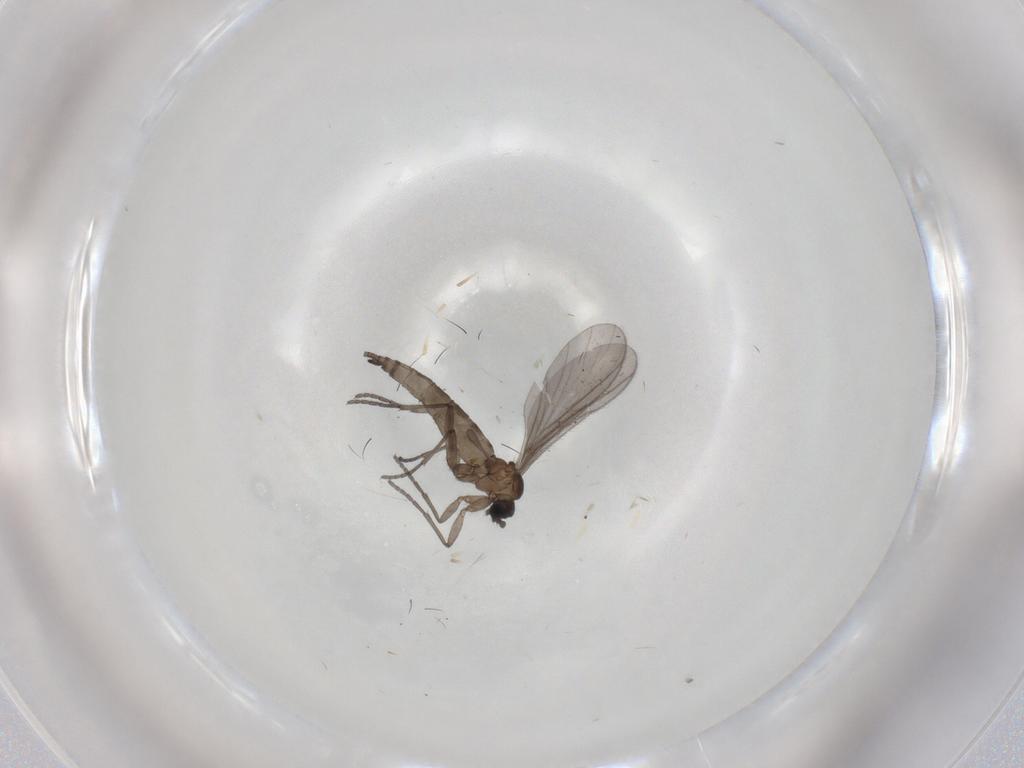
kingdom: Animalia
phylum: Arthropoda
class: Insecta
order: Diptera
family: Sciaridae
